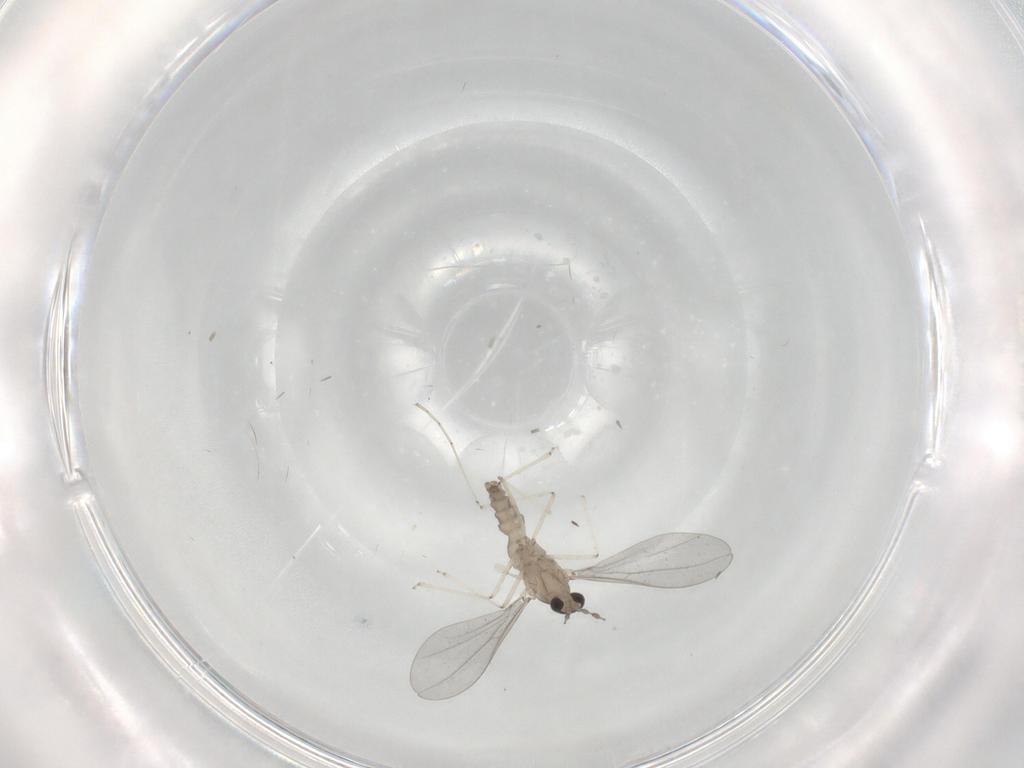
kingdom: Animalia
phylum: Arthropoda
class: Insecta
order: Diptera
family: Cecidomyiidae
